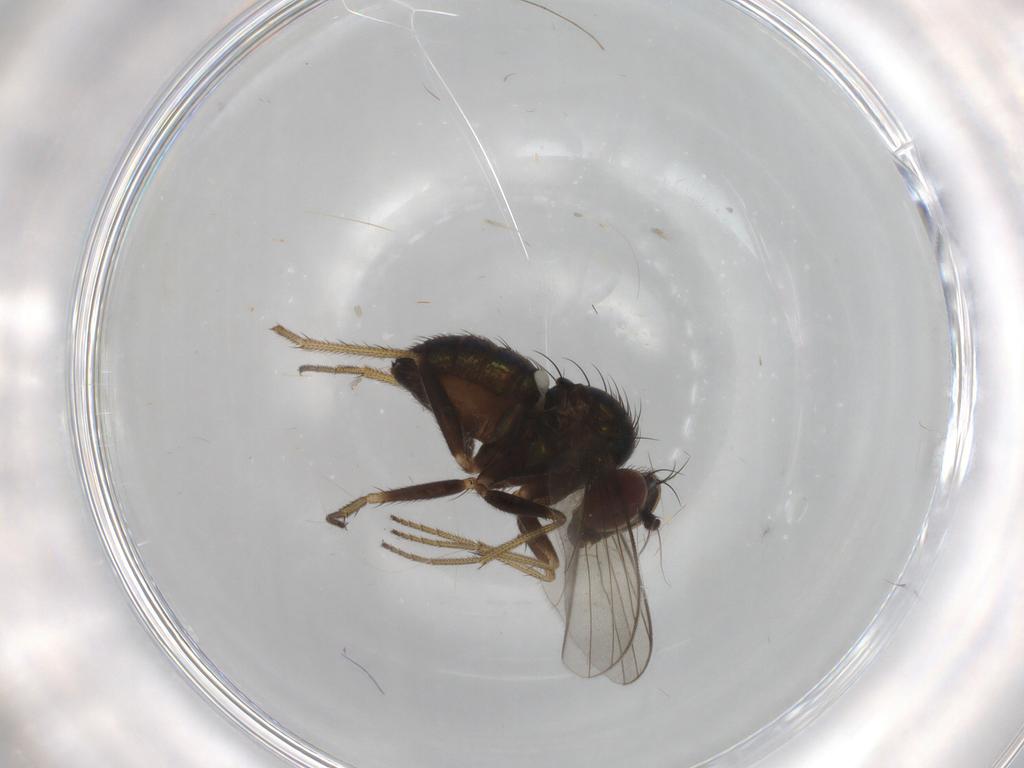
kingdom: Animalia
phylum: Arthropoda
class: Insecta
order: Diptera
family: Dolichopodidae
